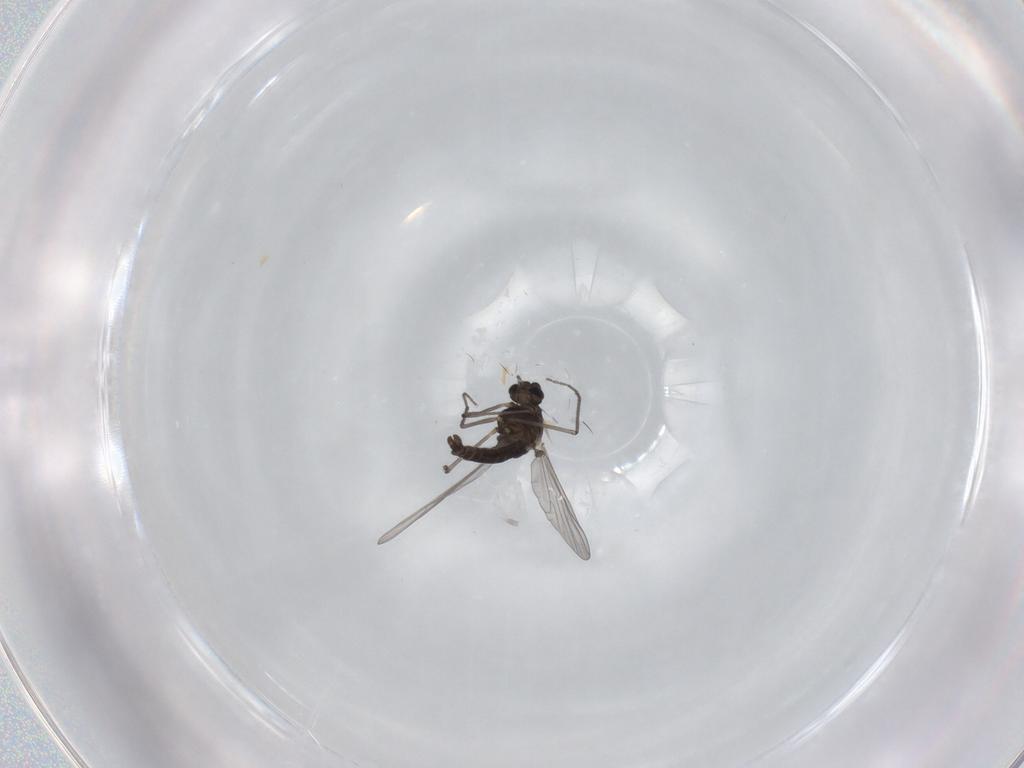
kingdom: Animalia
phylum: Arthropoda
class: Insecta
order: Diptera
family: Chironomidae
